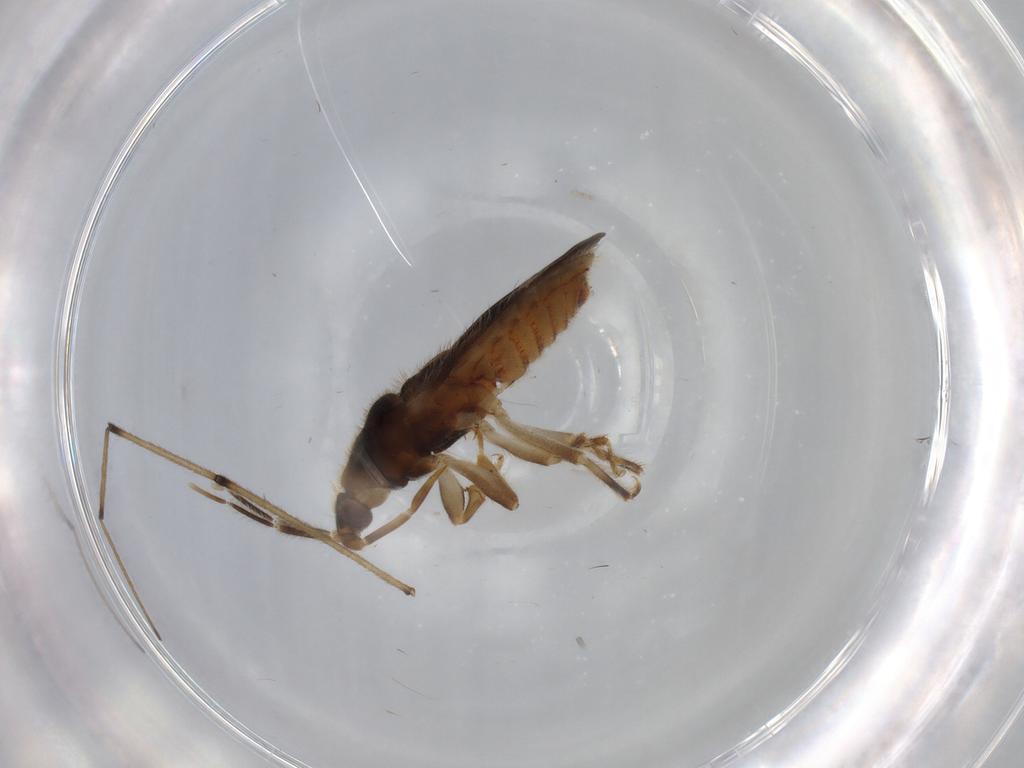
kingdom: Animalia
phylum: Arthropoda
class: Insecta
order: Hemiptera
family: Nabidae
